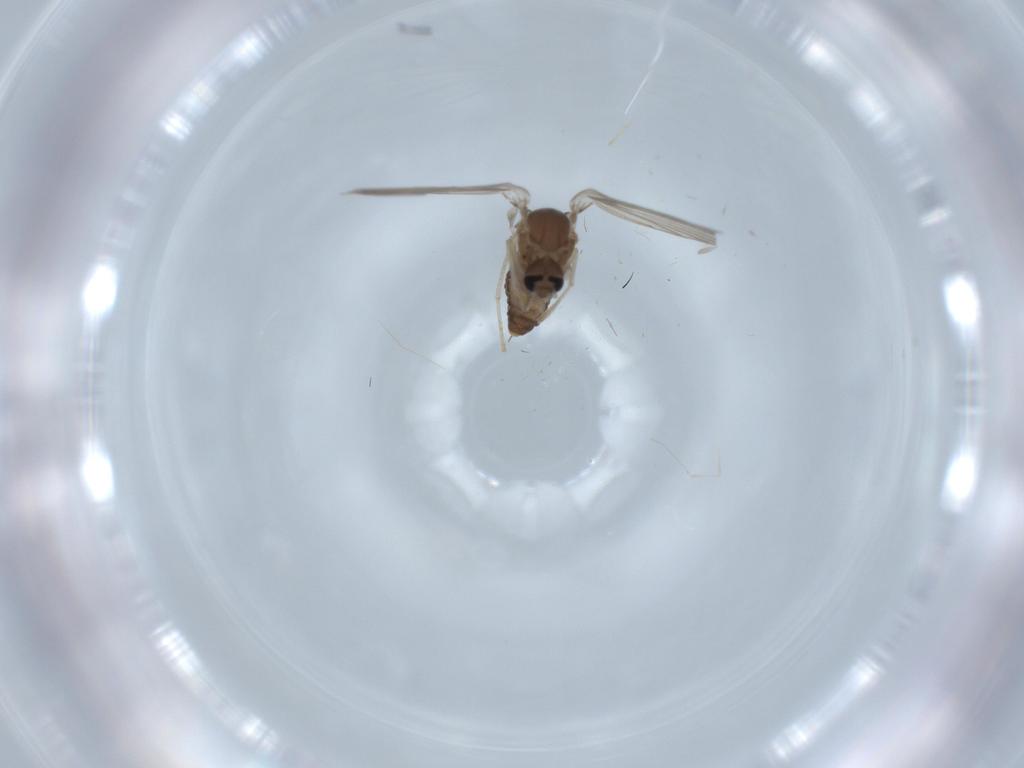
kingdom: Animalia
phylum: Arthropoda
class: Insecta
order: Diptera
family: Psychodidae
